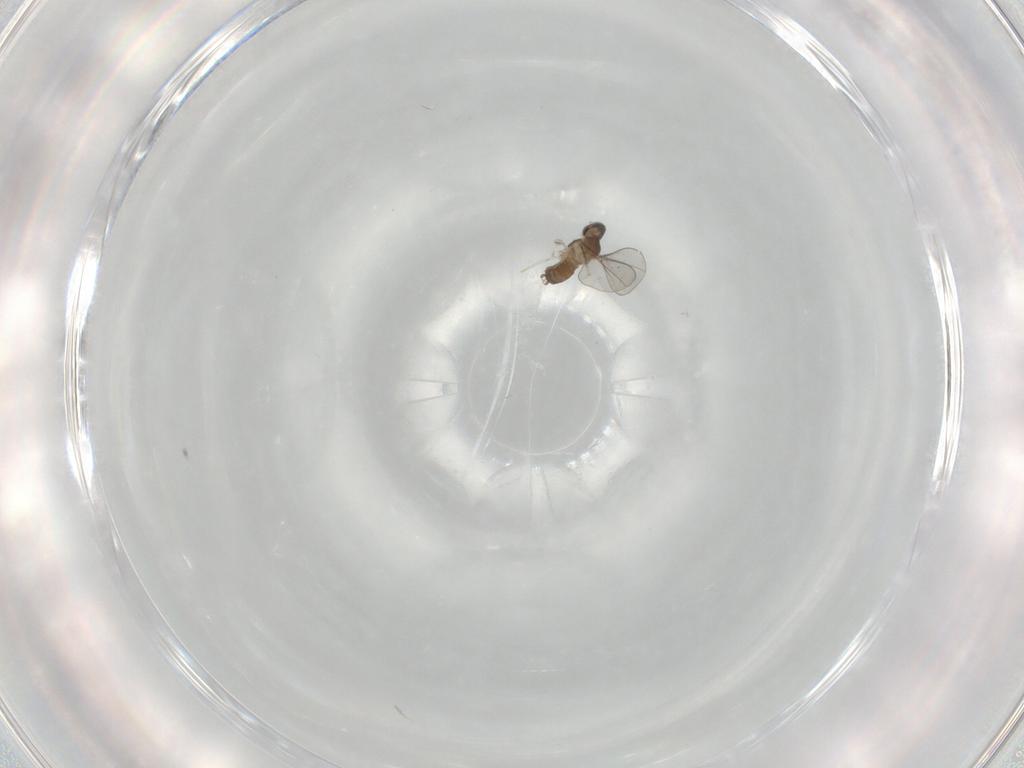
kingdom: Animalia
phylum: Arthropoda
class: Insecta
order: Diptera
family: Cecidomyiidae
